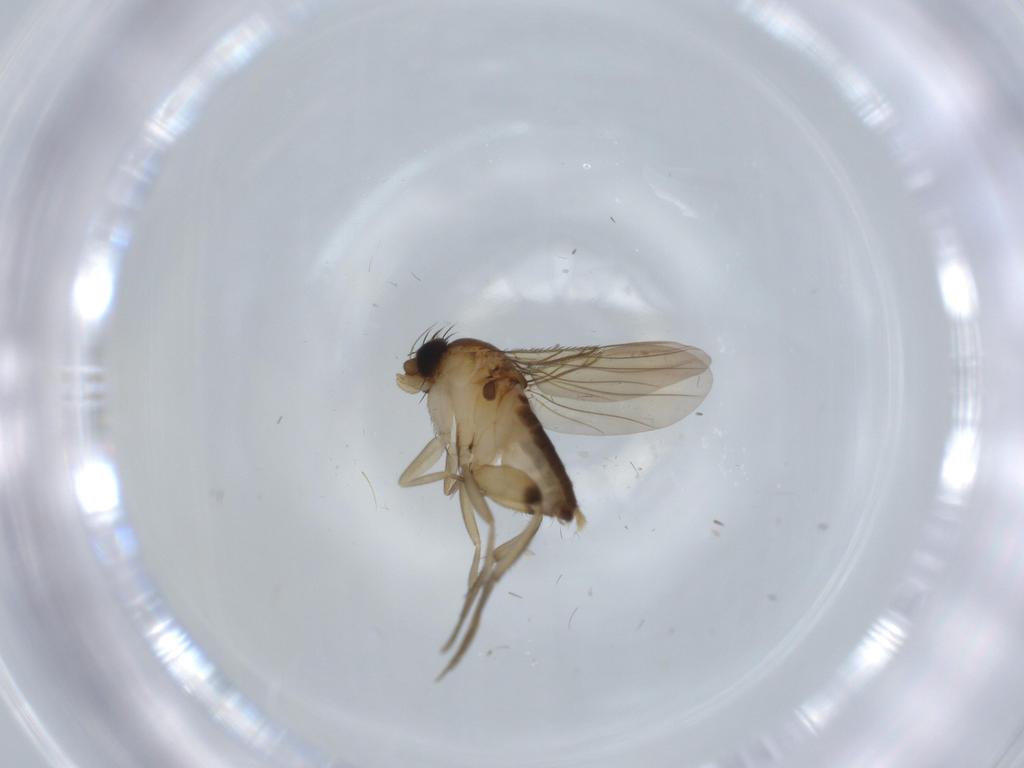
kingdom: Animalia
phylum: Arthropoda
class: Insecta
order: Diptera
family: Phoridae
